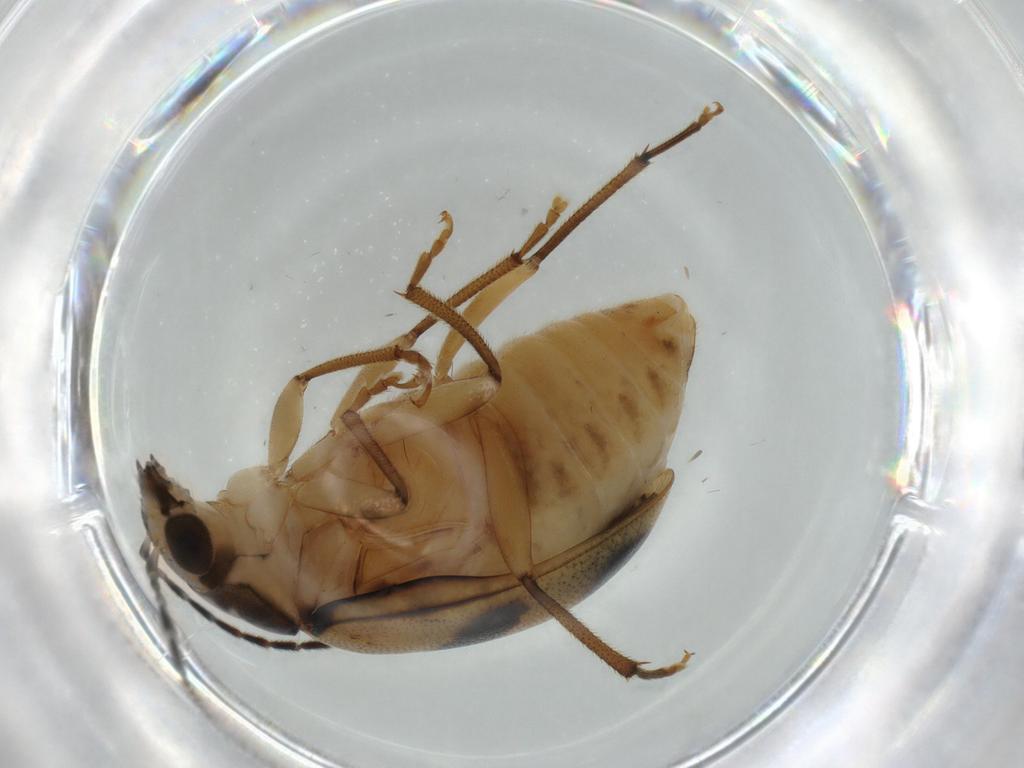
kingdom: Animalia
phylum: Arthropoda
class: Insecta
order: Coleoptera
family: Chrysomelidae
